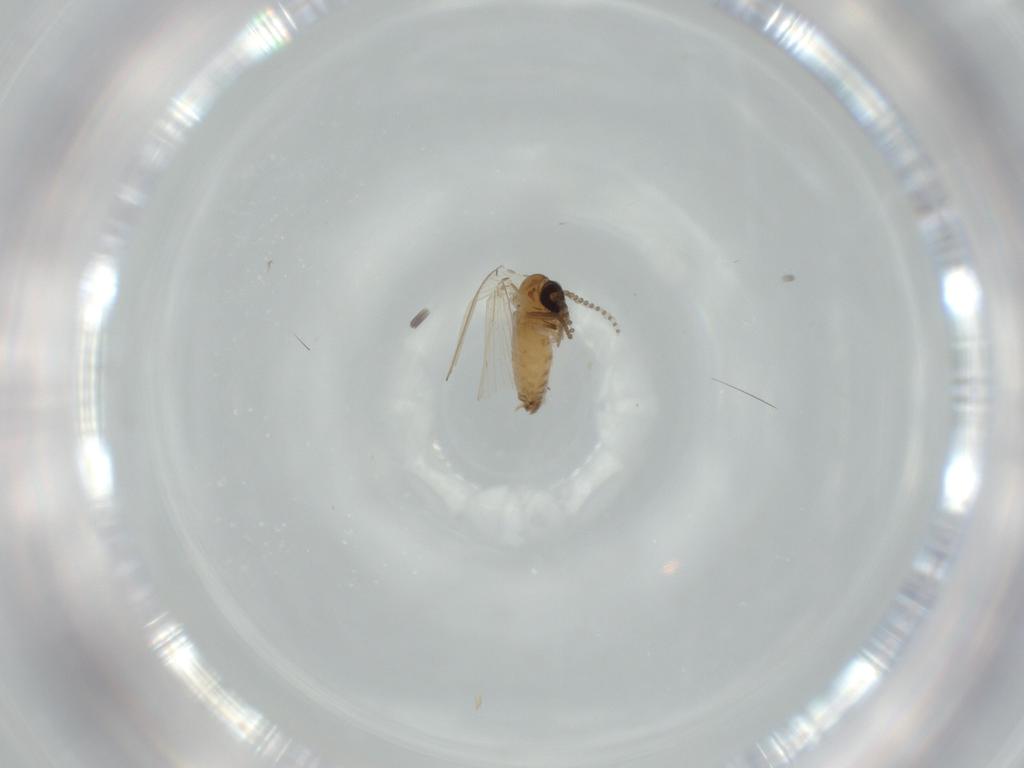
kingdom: Animalia
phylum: Arthropoda
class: Insecta
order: Diptera
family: Psychodidae
